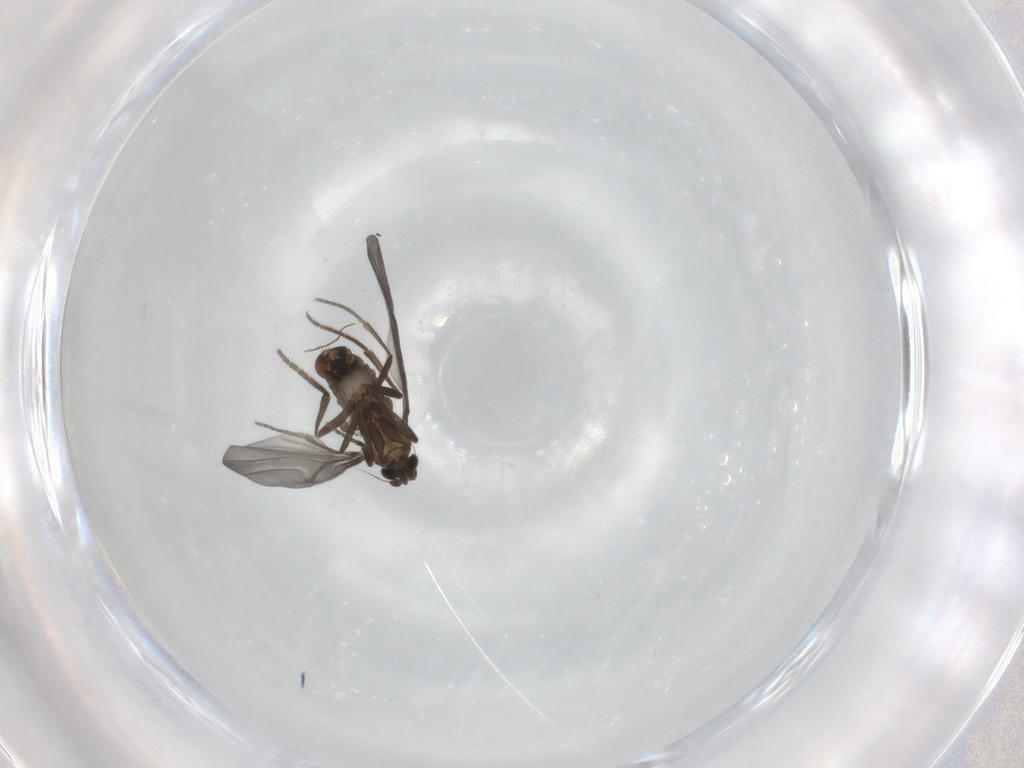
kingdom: Animalia
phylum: Arthropoda
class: Insecta
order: Diptera
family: Phoridae
